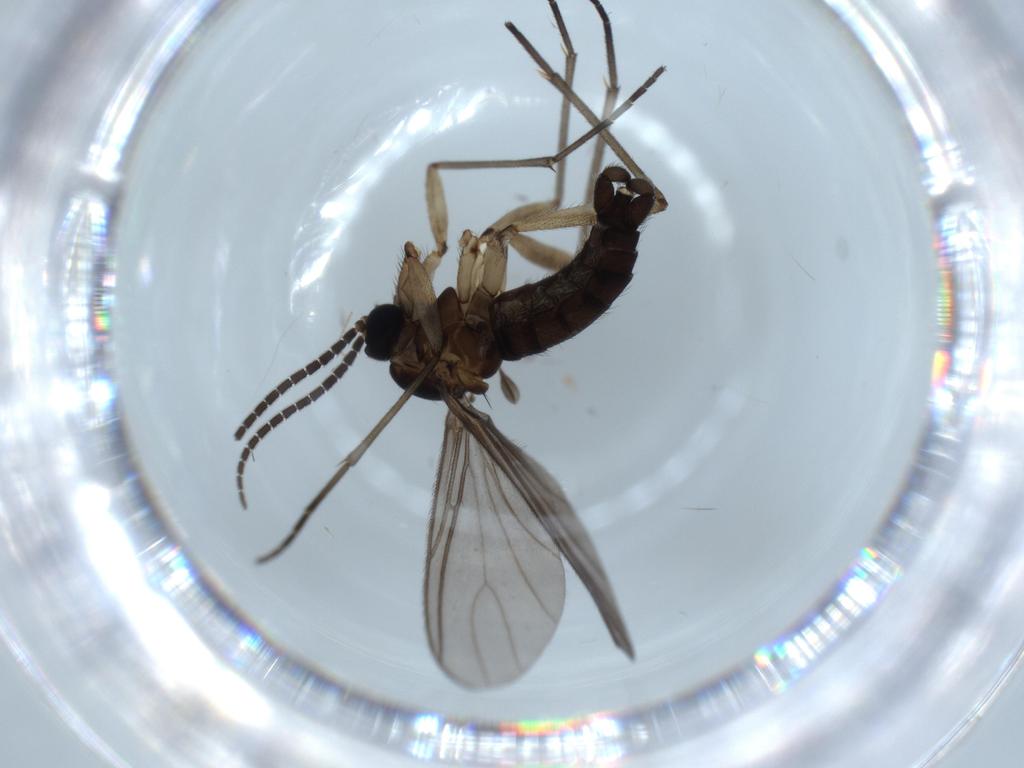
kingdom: Animalia
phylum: Arthropoda
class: Insecta
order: Diptera
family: Sciaridae
